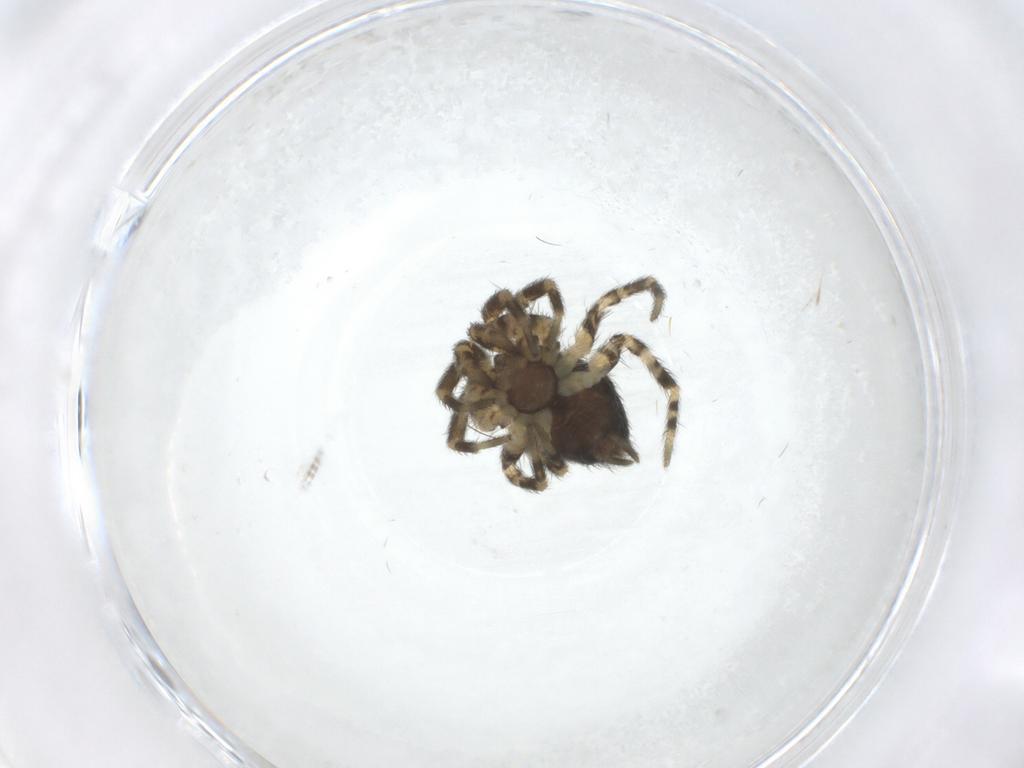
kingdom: Animalia
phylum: Arthropoda
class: Arachnida
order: Araneae
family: Oecobiidae
